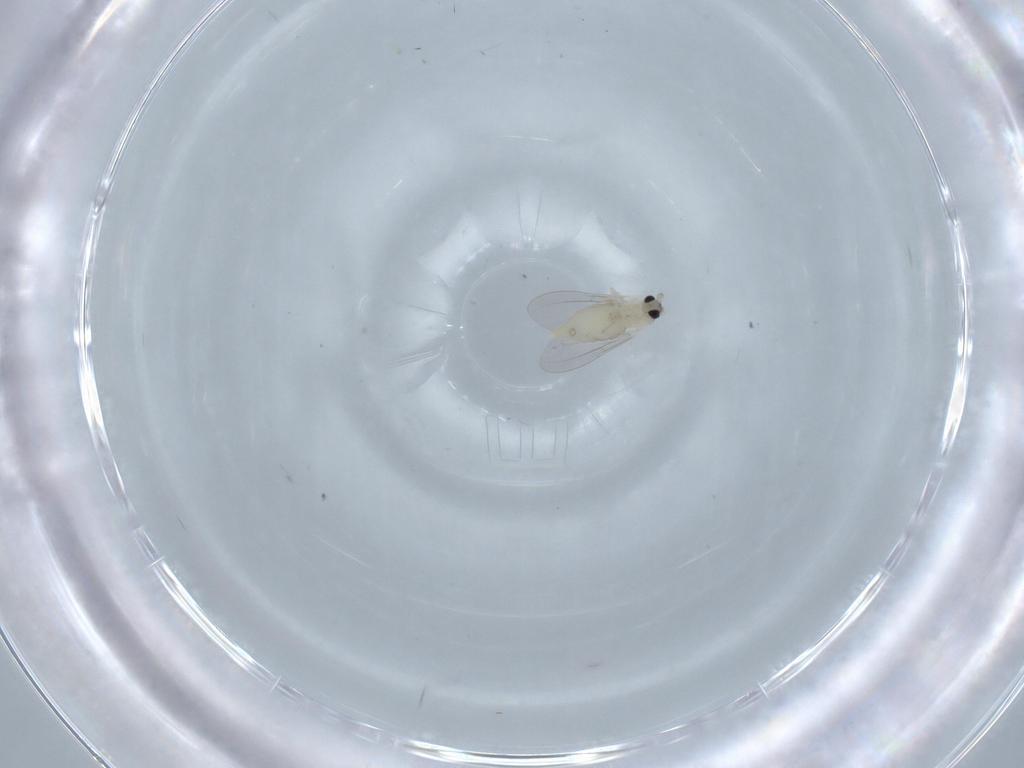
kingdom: Animalia
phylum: Arthropoda
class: Insecta
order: Diptera
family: Cecidomyiidae
